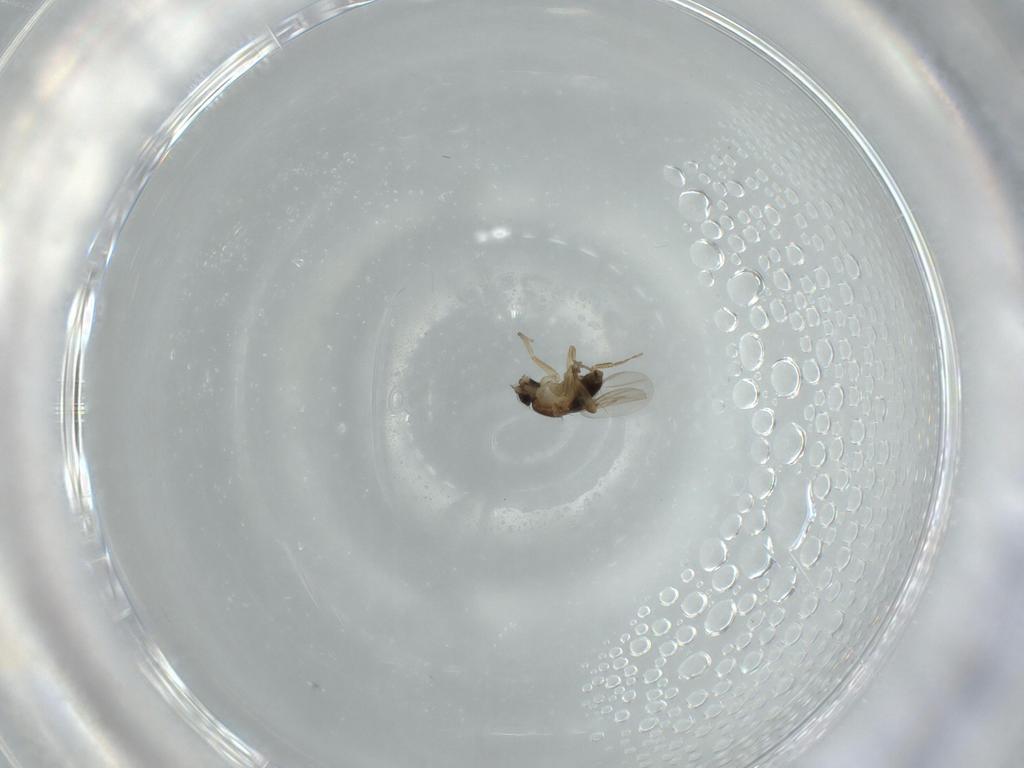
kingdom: Animalia
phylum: Arthropoda
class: Insecta
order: Diptera
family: Phoridae
